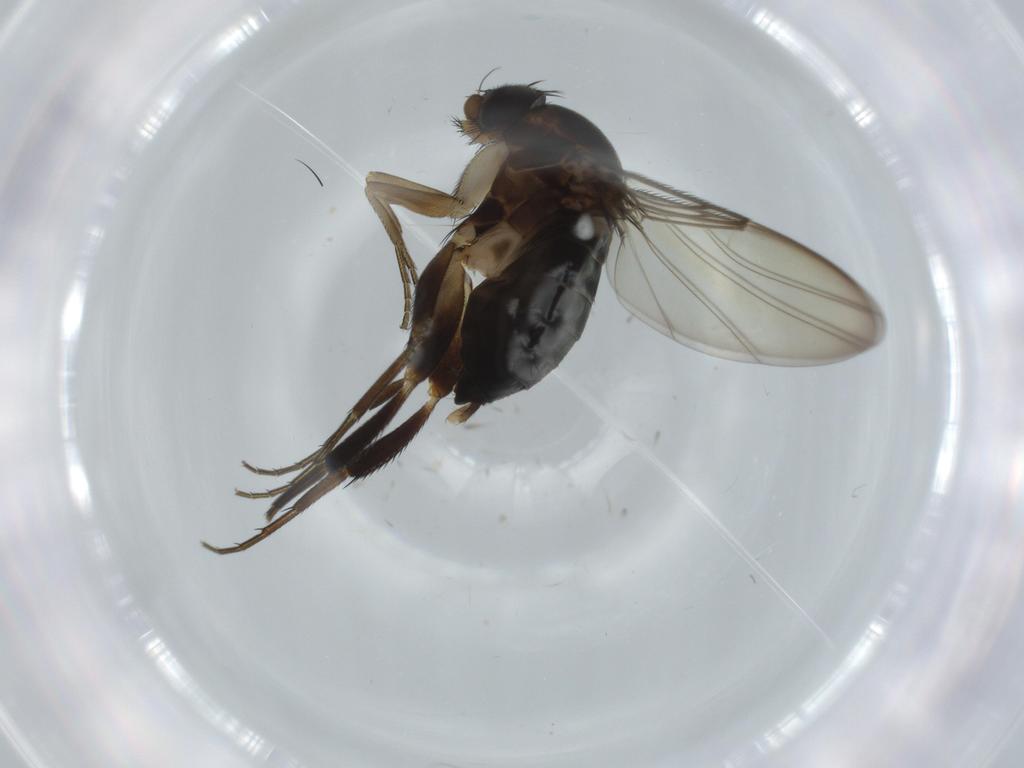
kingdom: Animalia
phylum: Arthropoda
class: Insecta
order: Diptera
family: Phoridae
